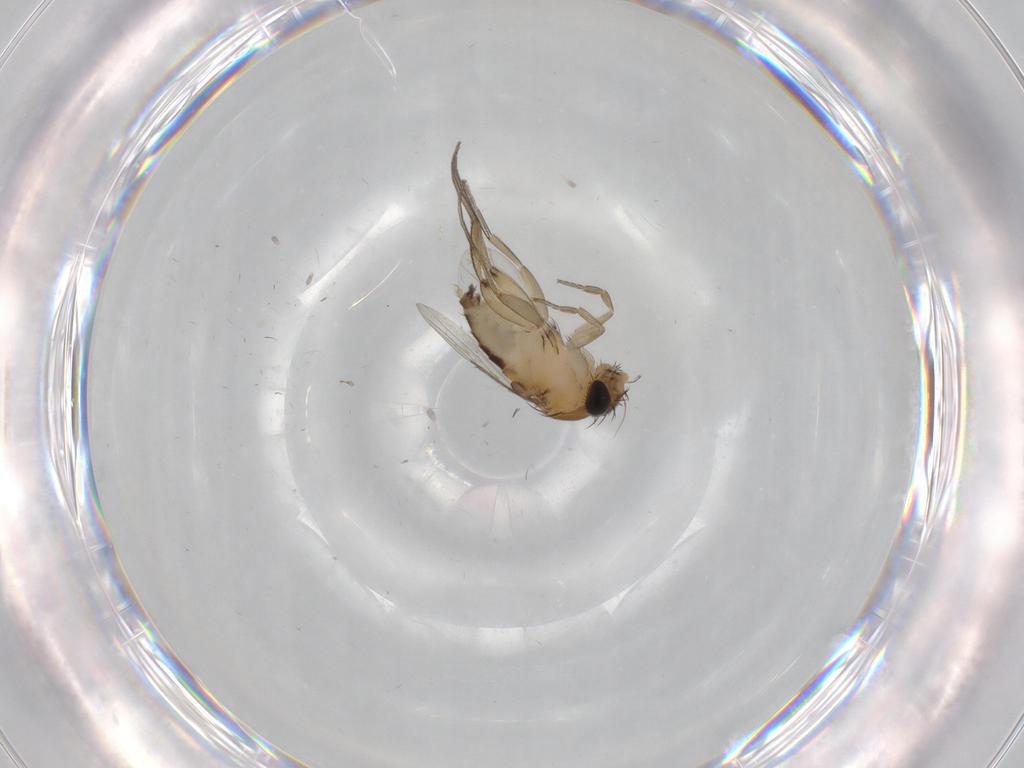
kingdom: Animalia
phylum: Arthropoda
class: Insecta
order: Diptera
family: Phoridae
